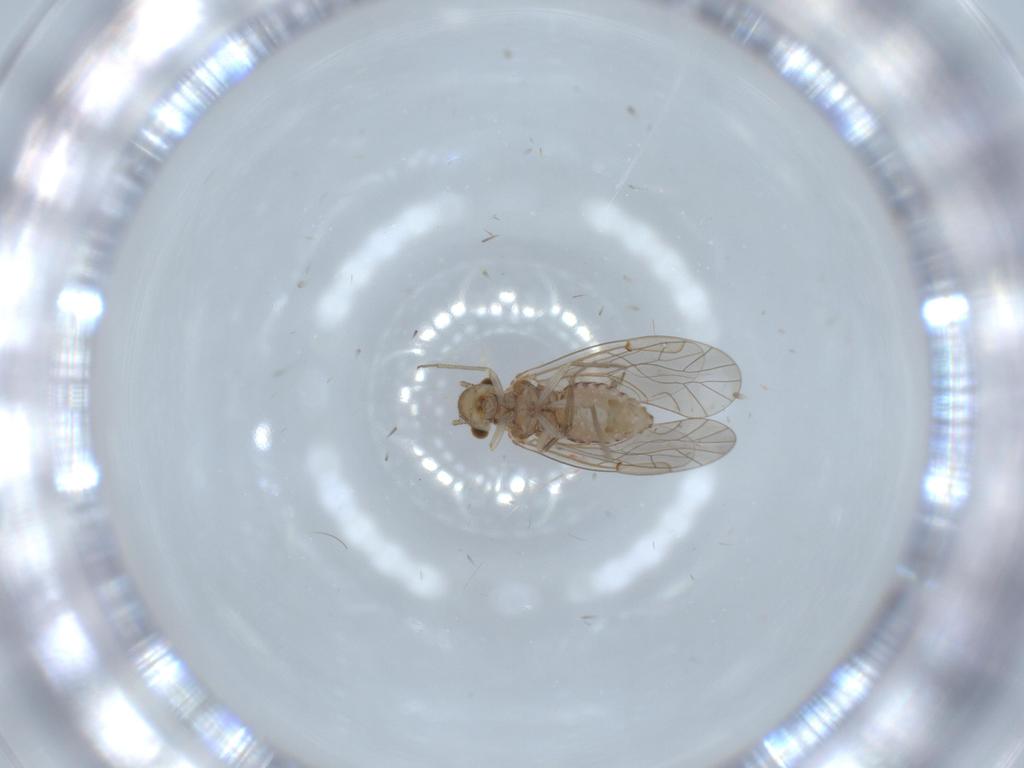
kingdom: Animalia
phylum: Arthropoda
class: Insecta
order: Psocodea
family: Lachesillidae
